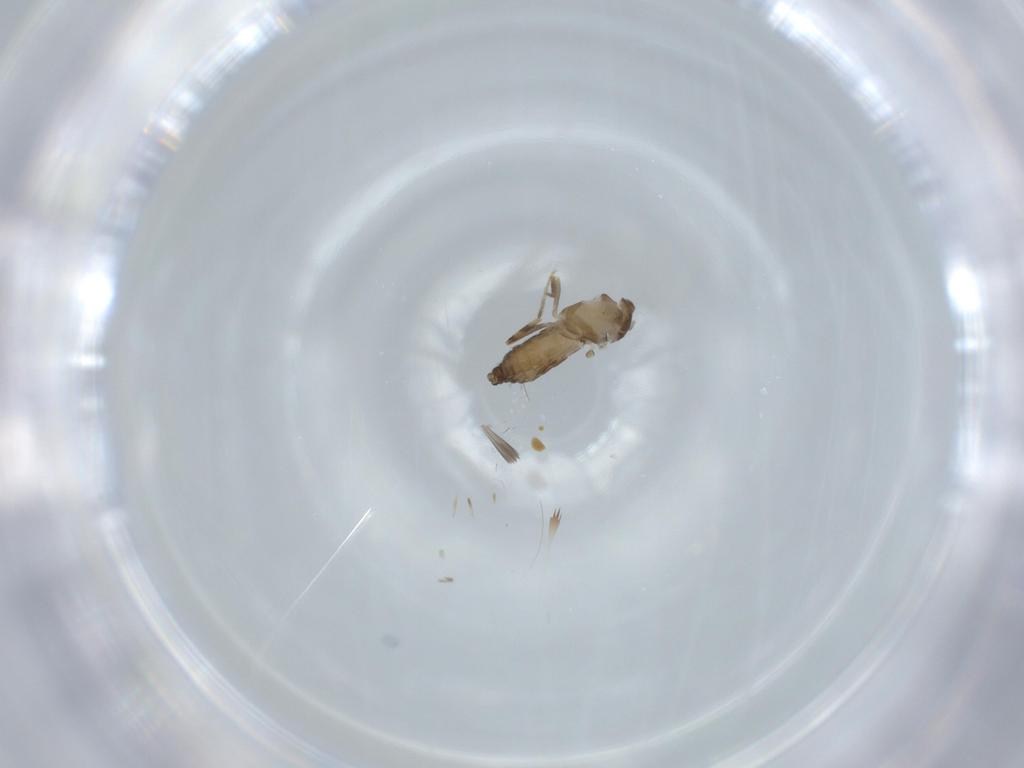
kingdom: Animalia
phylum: Arthropoda
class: Insecta
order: Diptera
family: Ceratopogonidae
